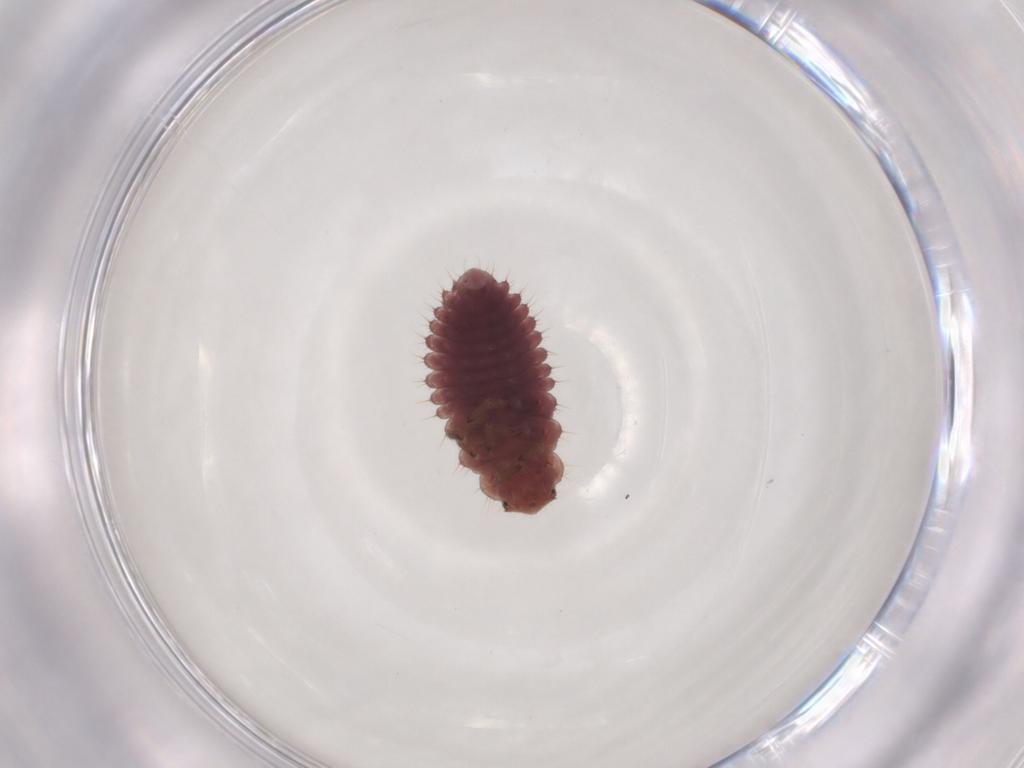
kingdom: Animalia
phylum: Arthropoda
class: Insecta
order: Coleoptera
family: Coccinellidae
